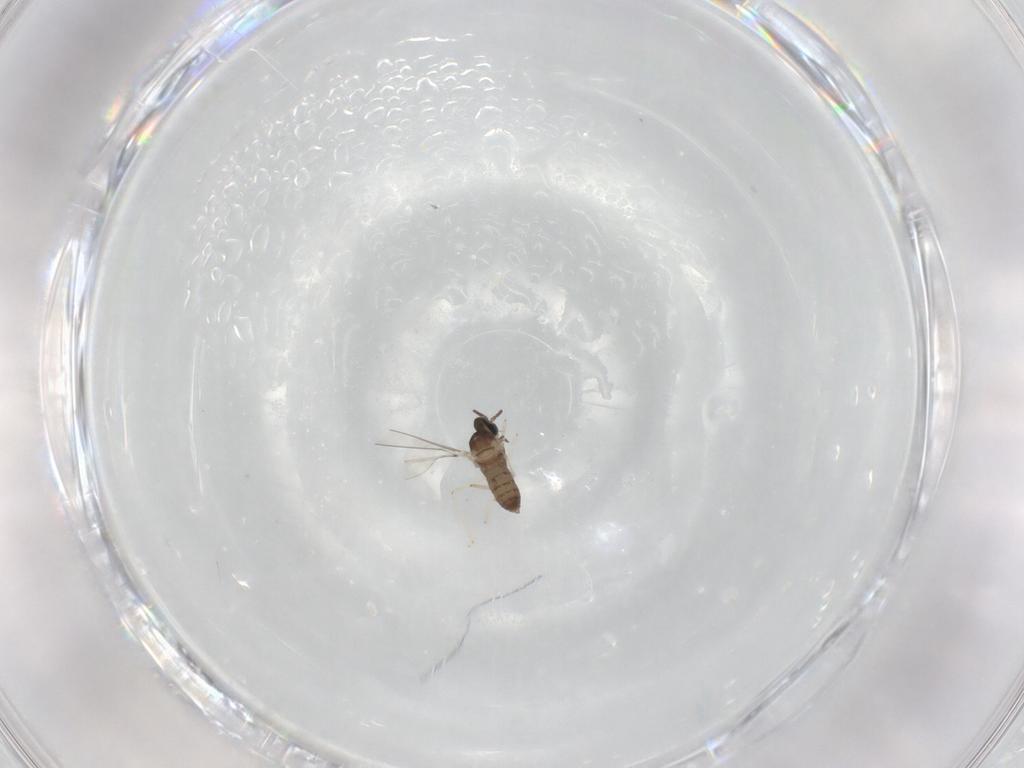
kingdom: Animalia
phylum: Arthropoda
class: Insecta
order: Diptera
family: Cecidomyiidae
